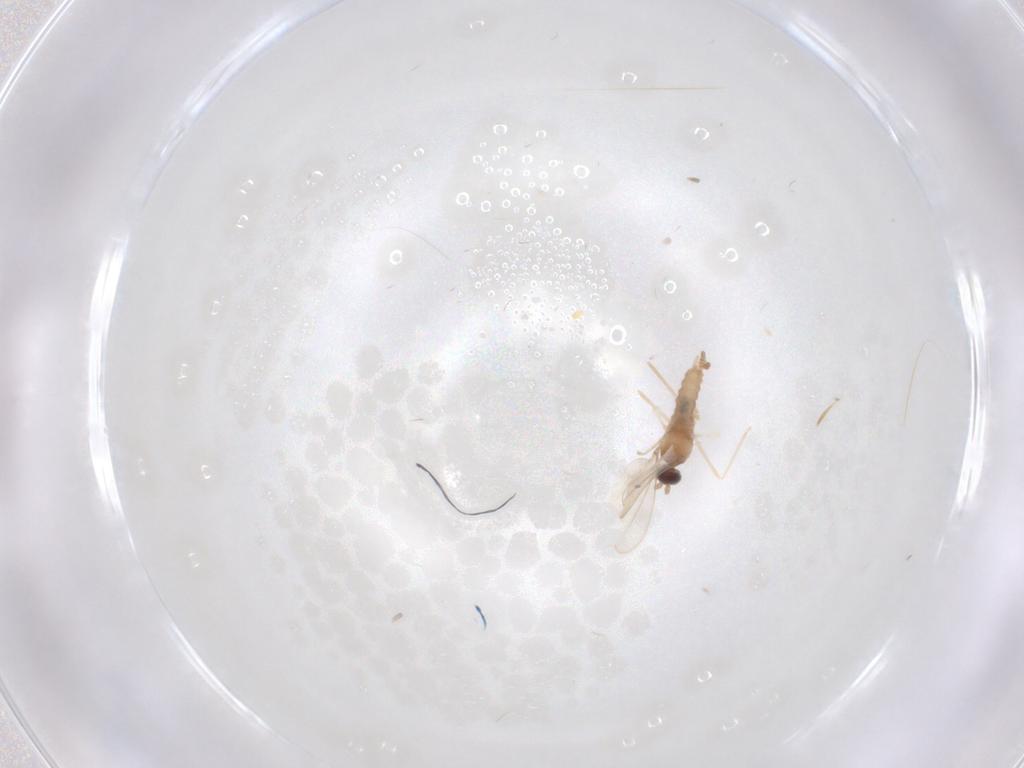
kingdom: Animalia
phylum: Arthropoda
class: Insecta
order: Diptera
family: Cecidomyiidae
